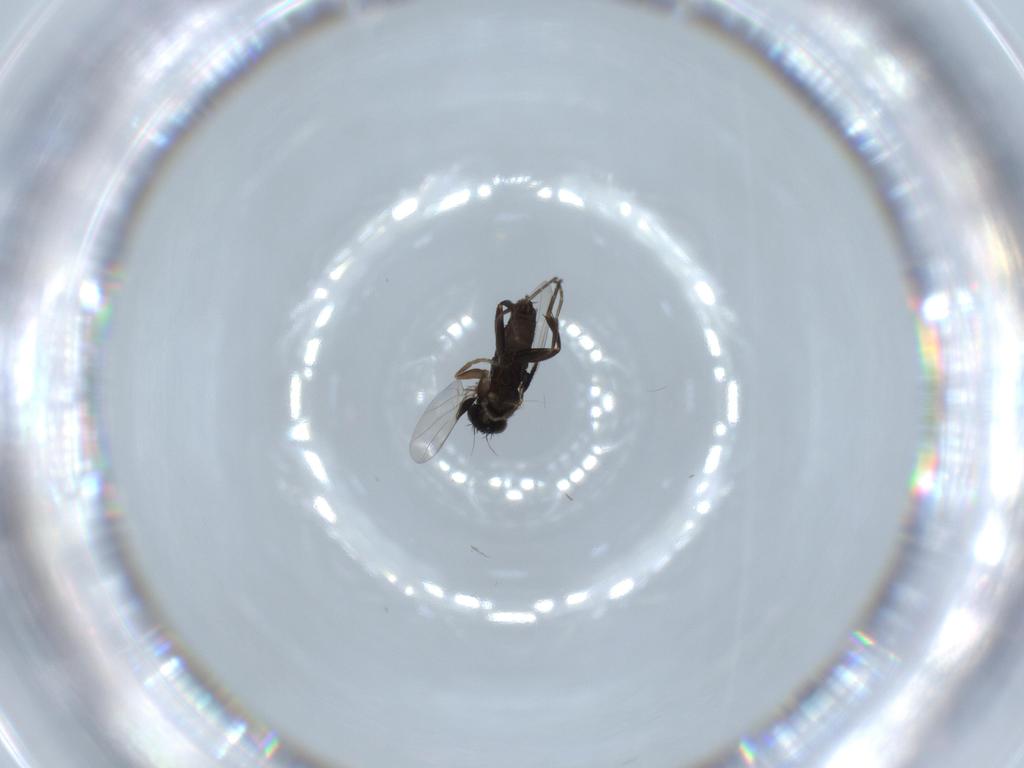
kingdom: Animalia
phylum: Arthropoda
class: Insecta
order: Diptera
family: Phoridae
